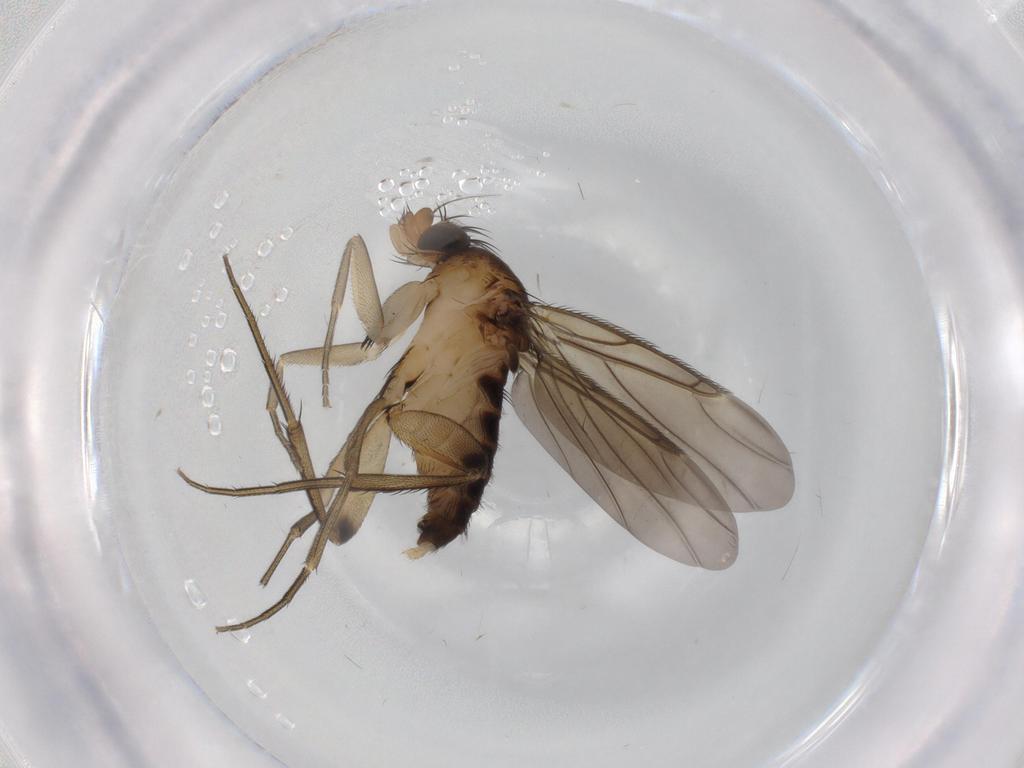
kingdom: Animalia
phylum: Arthropoda
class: Insecta
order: Diptera
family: Phoridae
